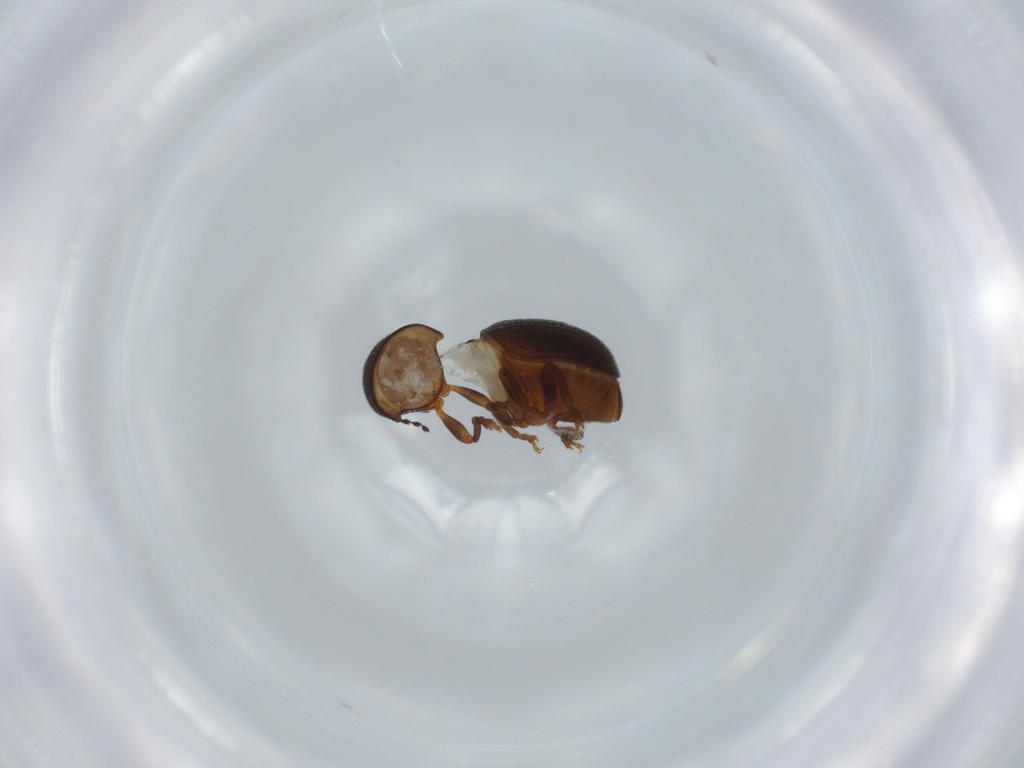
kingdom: Animalia
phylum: Arthropoda
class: Insecta
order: Coleoptera
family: Anthribidae
